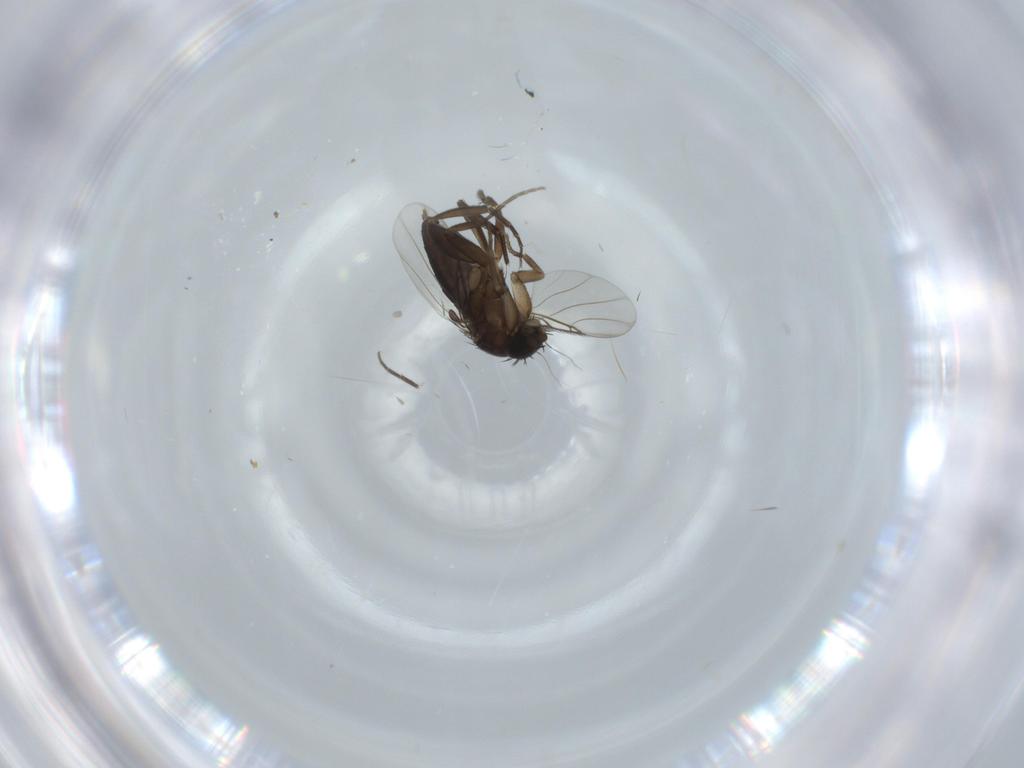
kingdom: Animalia
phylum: Arthropoda
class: Insecta
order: Diptera
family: Phoridae
